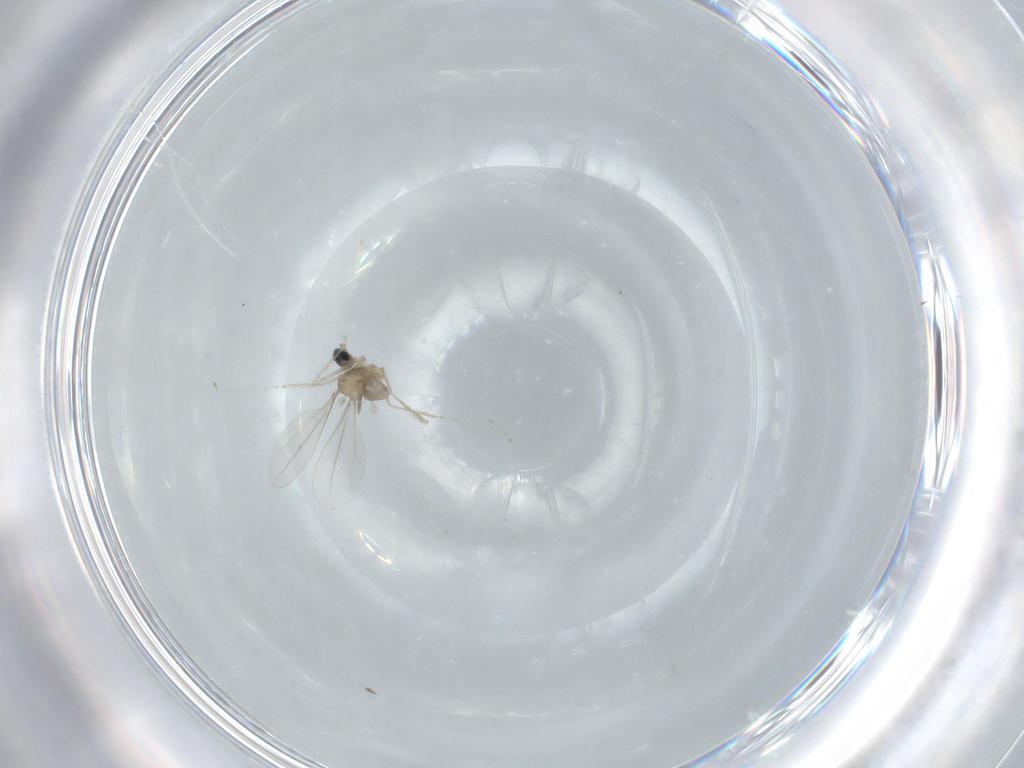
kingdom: Animalia
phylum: Arthropoda
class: Insecta
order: Diptera
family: Cecidomyiidae
